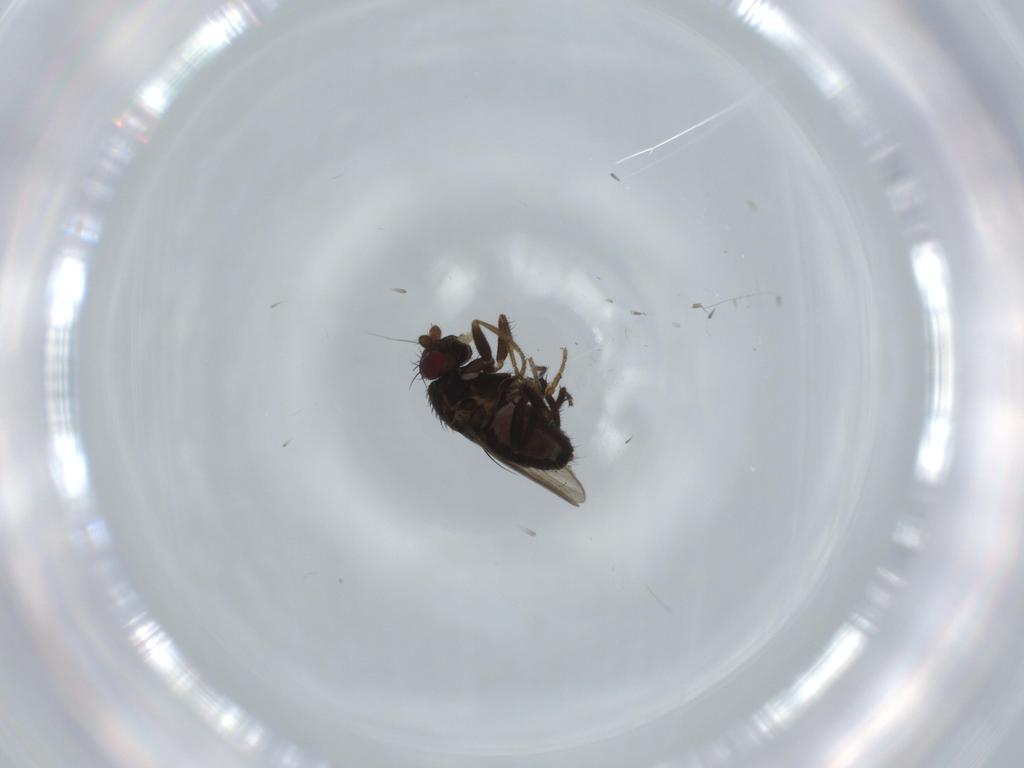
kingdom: Animalia
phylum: Arthropoda
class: Insecta
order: Diptera
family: Sphaeroceridae
